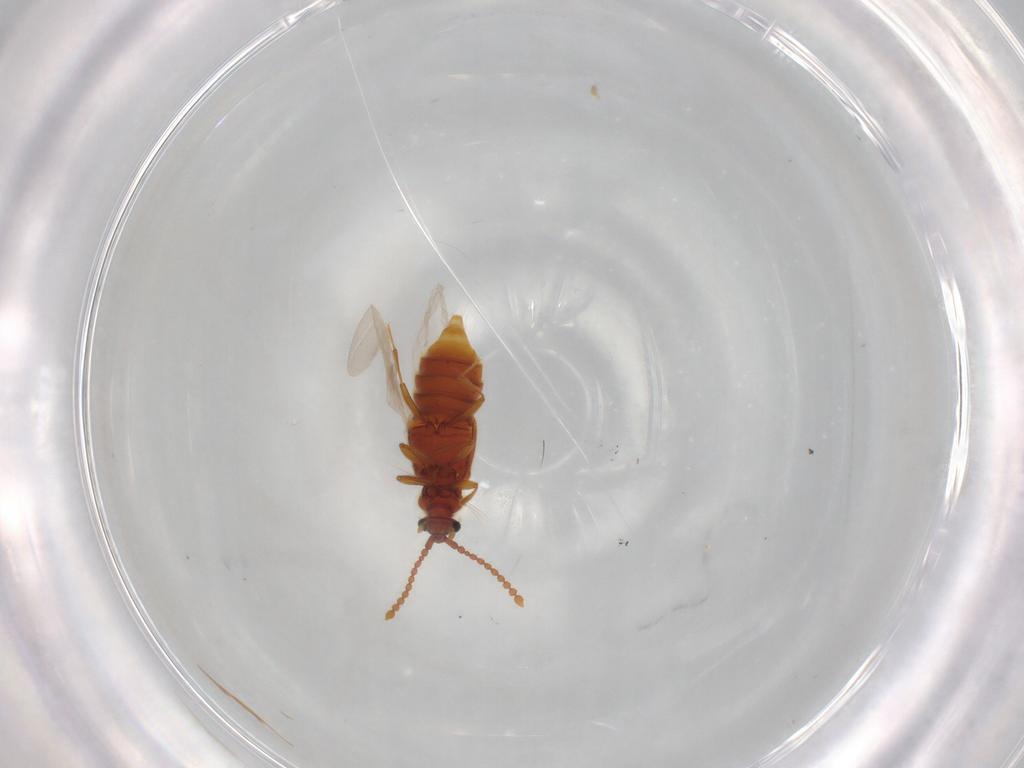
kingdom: Animalia
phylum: Arthropoda
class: Insecta
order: Coleoptera
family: Staphylinidae
